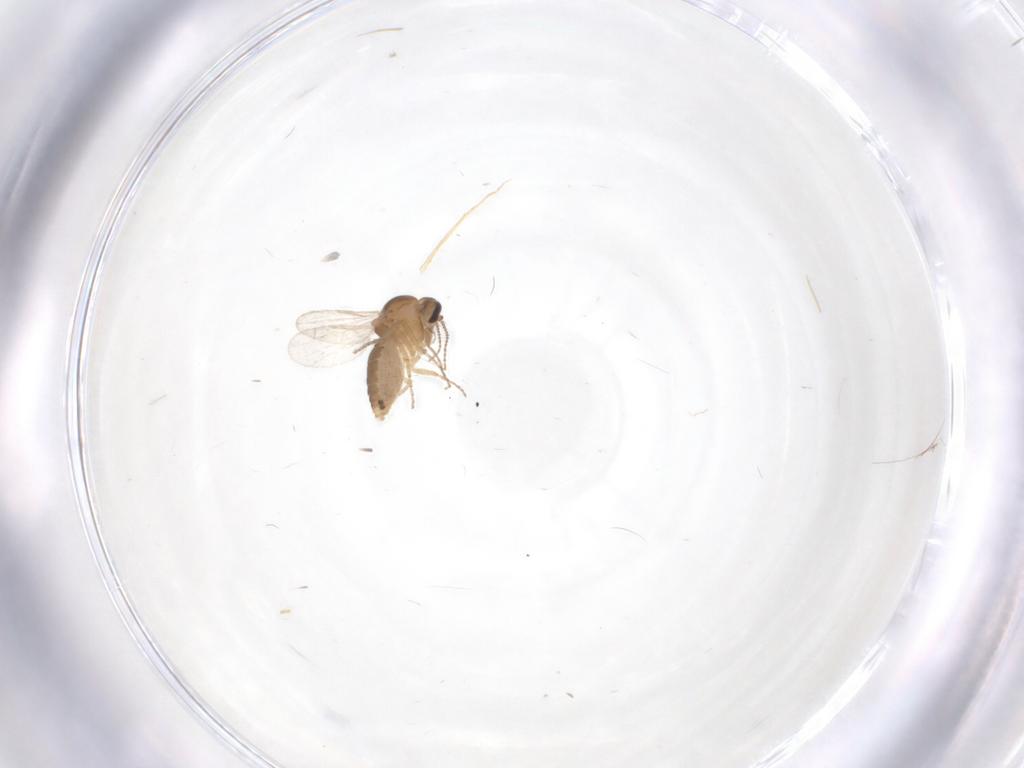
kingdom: Animalia
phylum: Arthropoda
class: Insecta
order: Diptera
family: Ceratopogonidae
